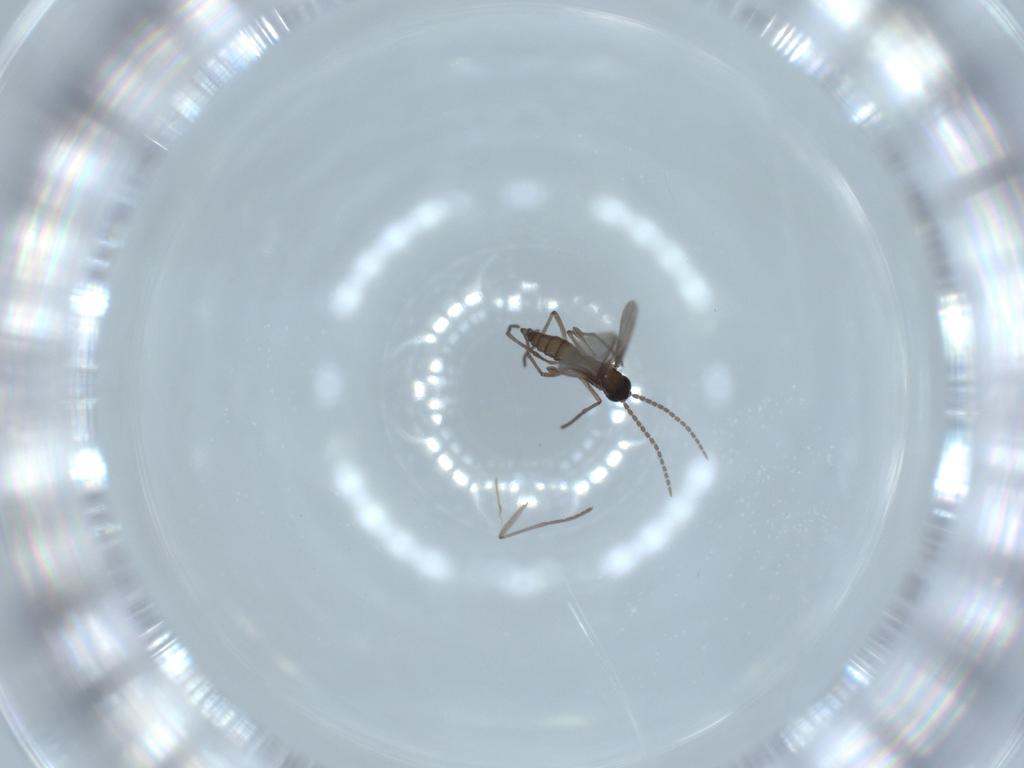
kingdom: Animalia
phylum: Arthropoda
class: Insecta
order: Diptera
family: Sciaridae
